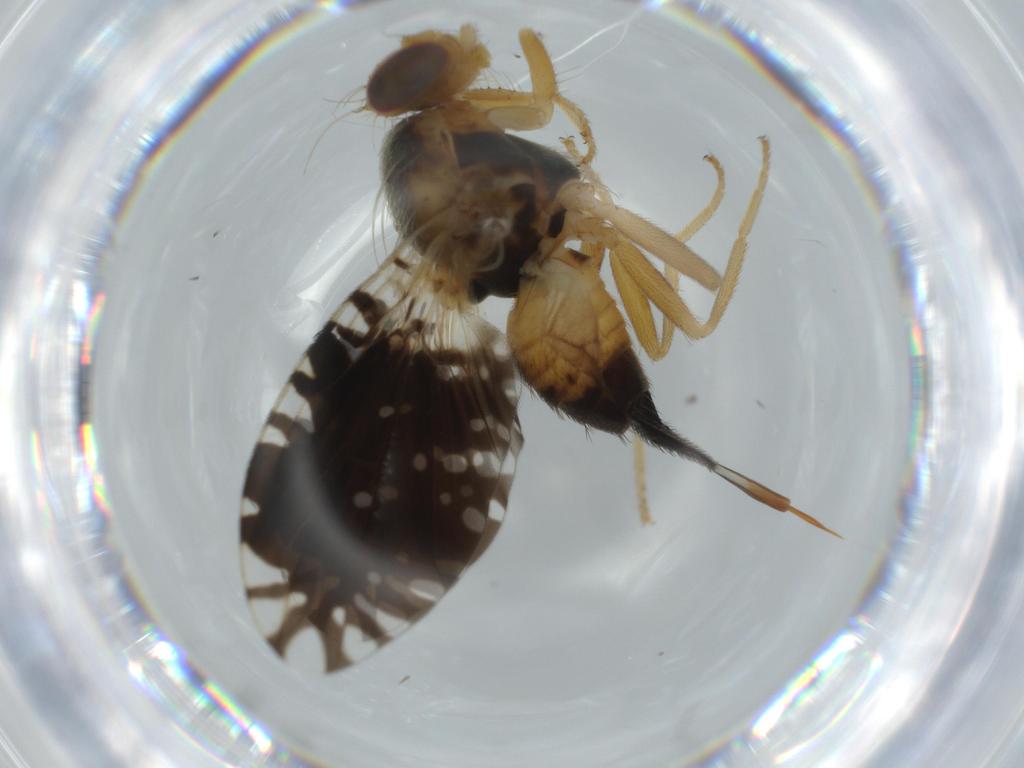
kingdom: Animalia
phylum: Arthropoda
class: Insecta
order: Diptera
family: Tephritidae
